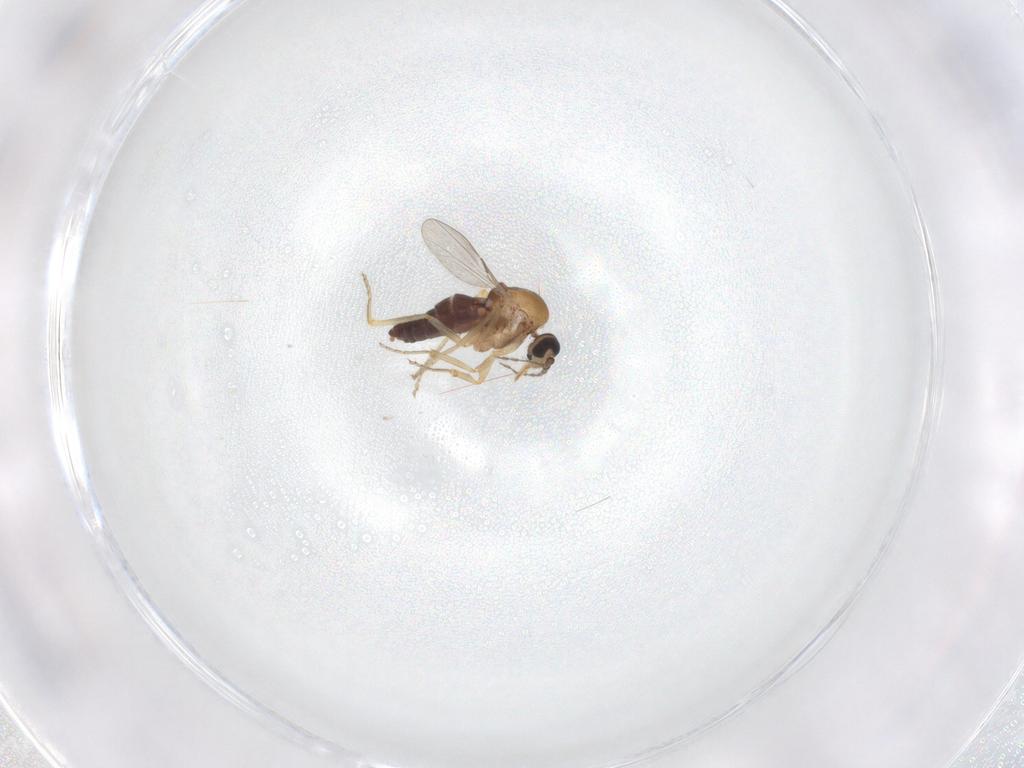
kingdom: Animalia
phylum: Arthropoda
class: Insecta
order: Diptera
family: Ceratopogonidae
